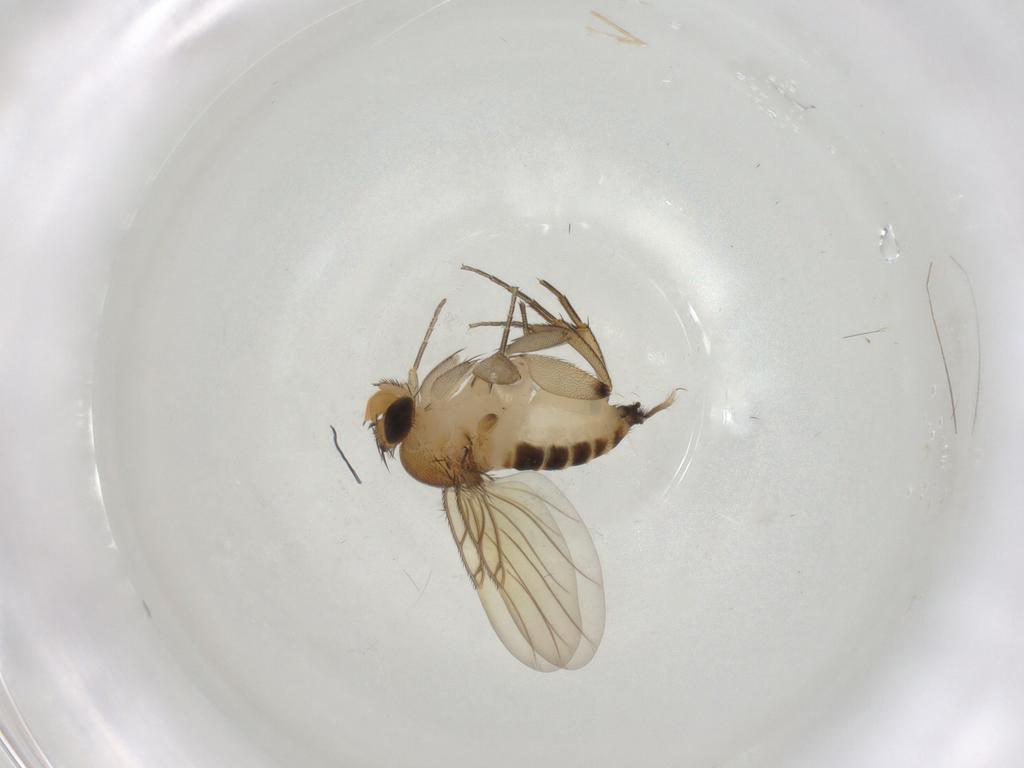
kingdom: Animalia
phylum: Arthropoda
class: Insecta
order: Diptera
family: Phoridae
